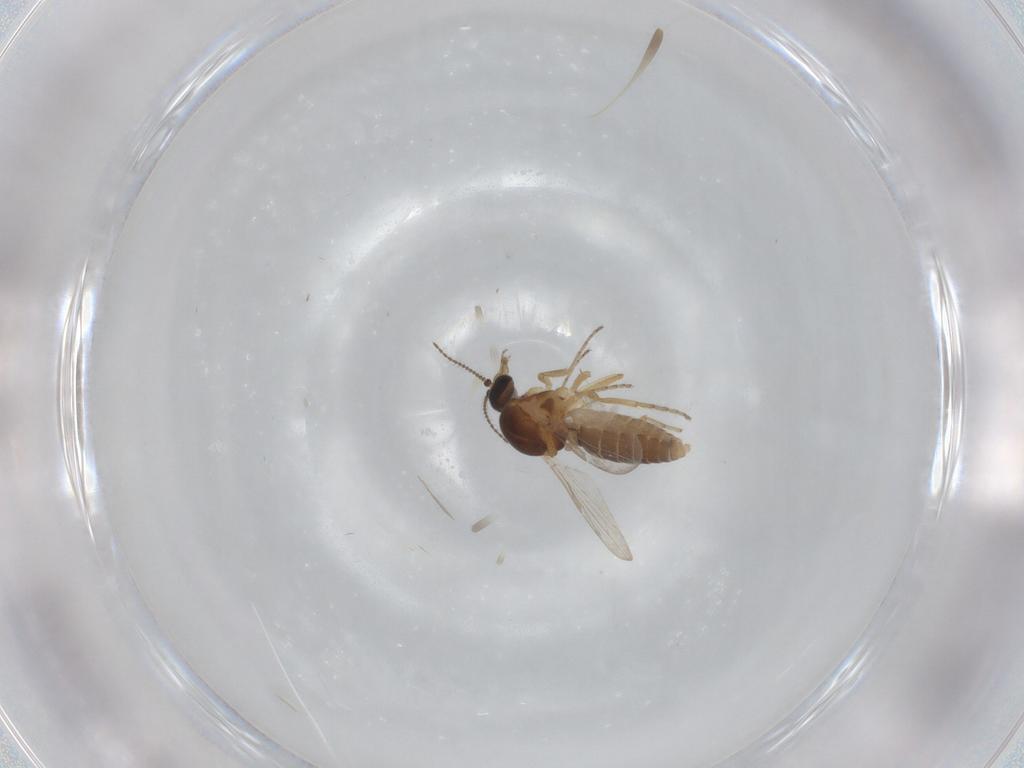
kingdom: Animalia
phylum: Arthropoda
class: Insecta
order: Diptera
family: Ceratopogonidae
